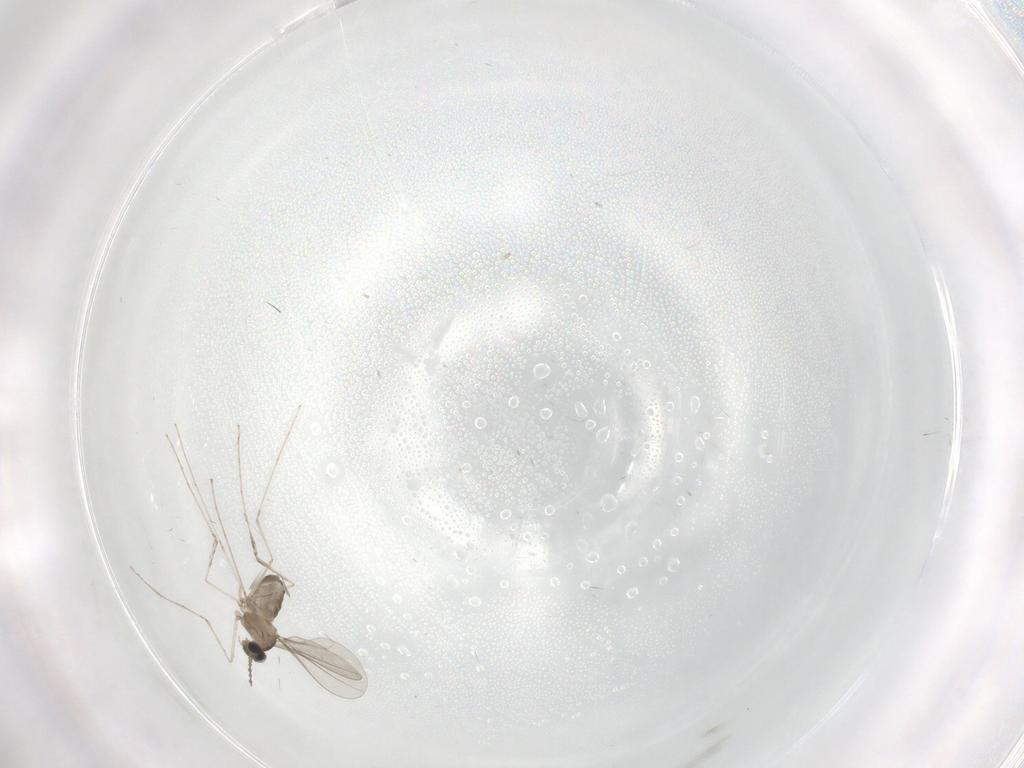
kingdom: Animalia
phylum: Arthropoda
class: Insecta
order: Diptera
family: Cecidomyiidae
